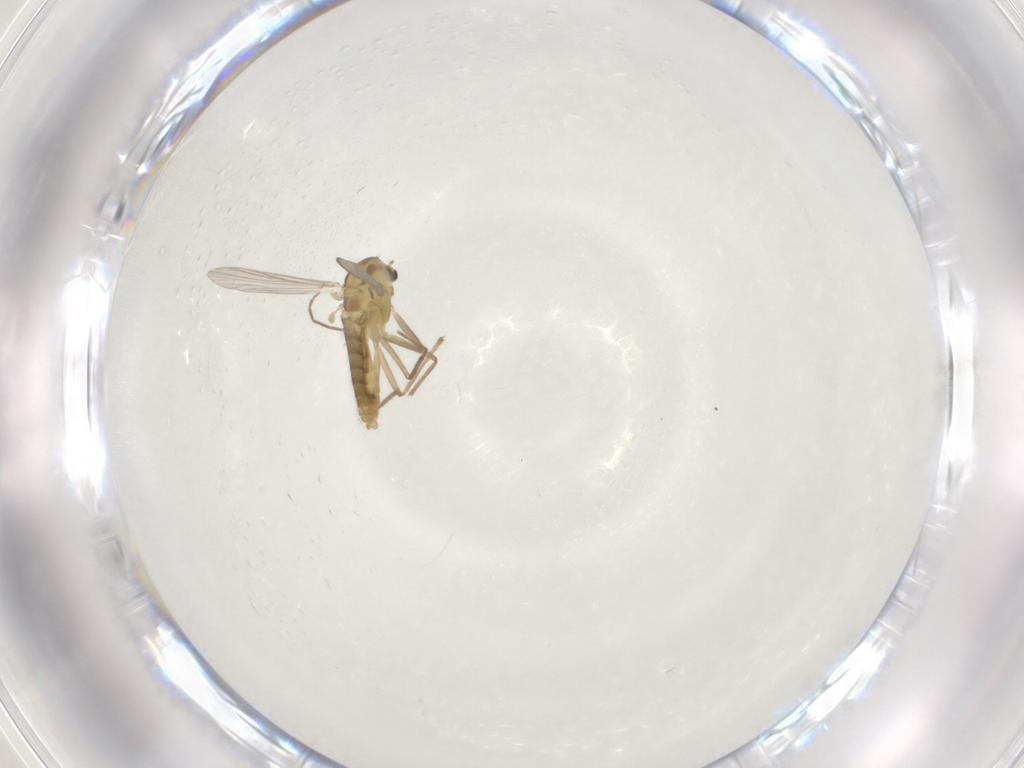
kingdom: Animalia
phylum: Arthropoda
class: Insecta
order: Diptera
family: Chironomidae
